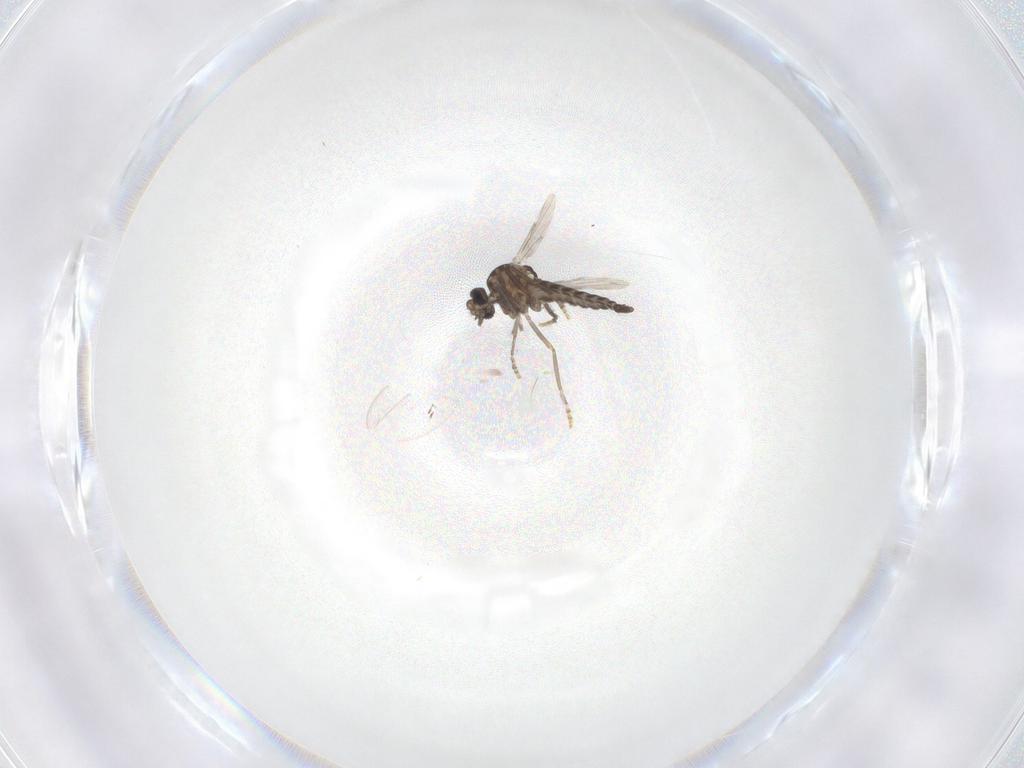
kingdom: Animalia
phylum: Arthropoda
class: Insecta
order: Diptera
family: Ceratopogonidae
